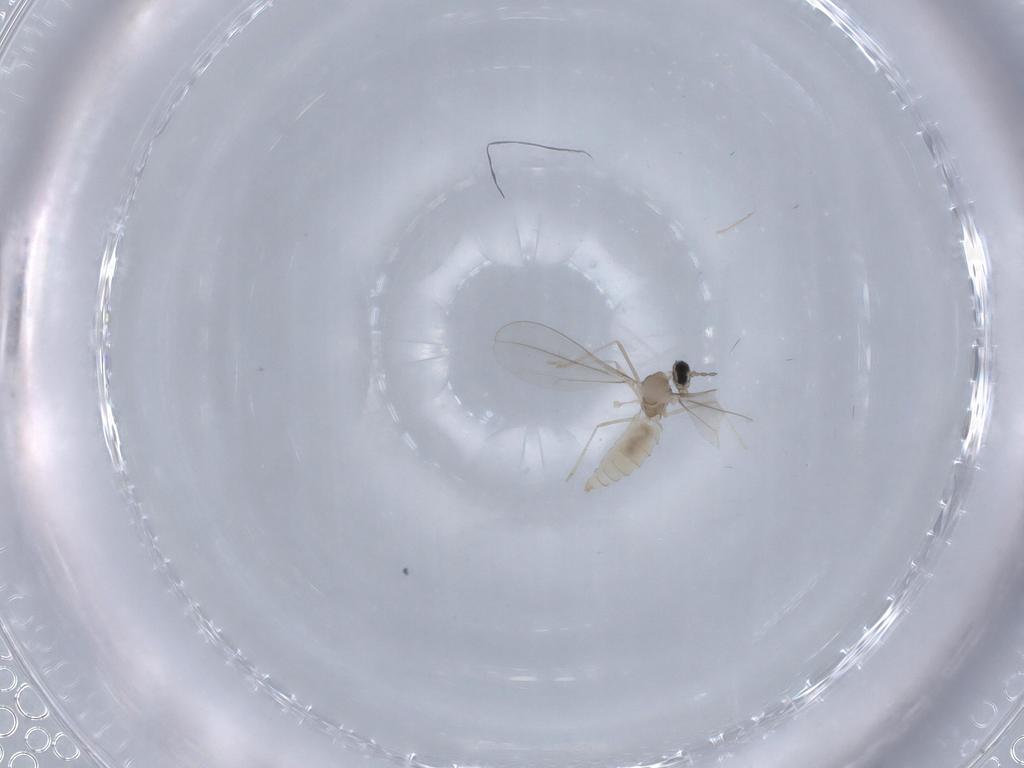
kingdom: Animalia
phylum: Arthropoda
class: Insecta
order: Diptera
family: Cecidomyiidae
